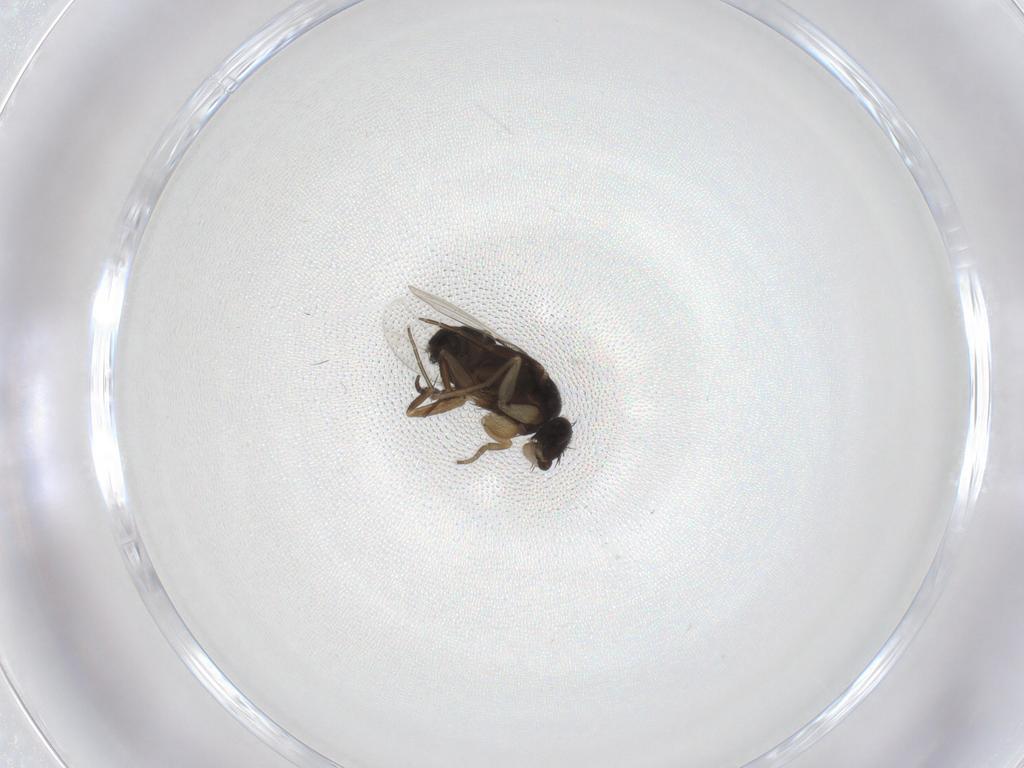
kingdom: Animalia
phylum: Arthropoda
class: Insecta
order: Diptera
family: Phoridae
